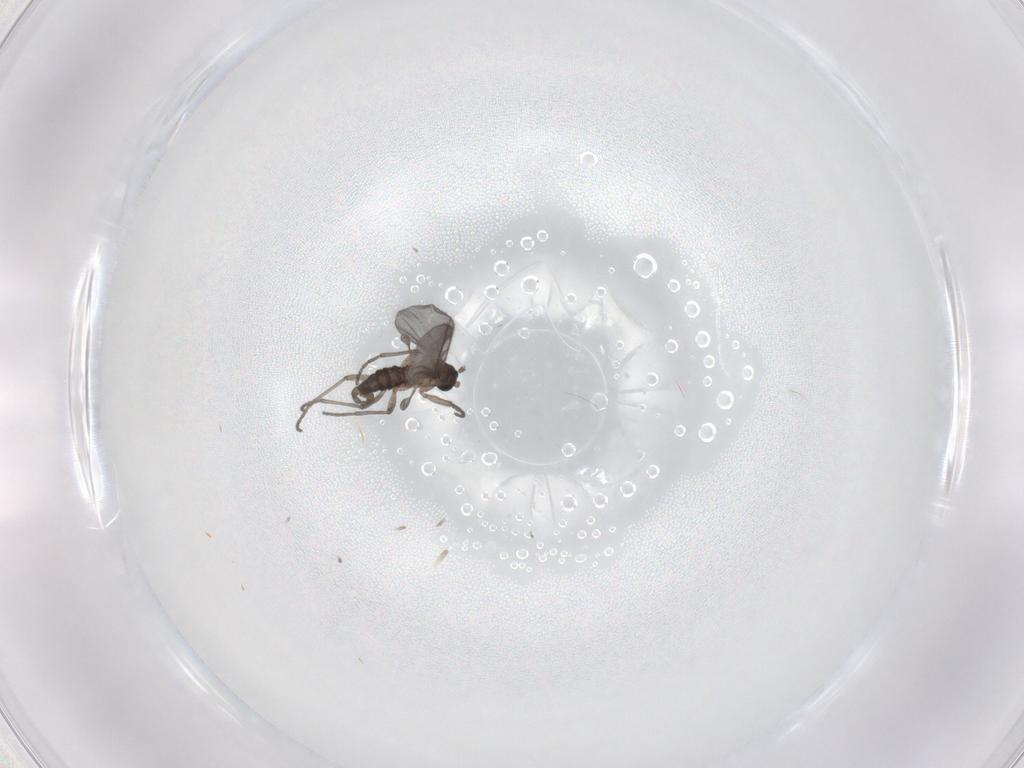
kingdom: Animalia
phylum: Arthropoda
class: Insecta
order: Diptera
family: Sciaridae
